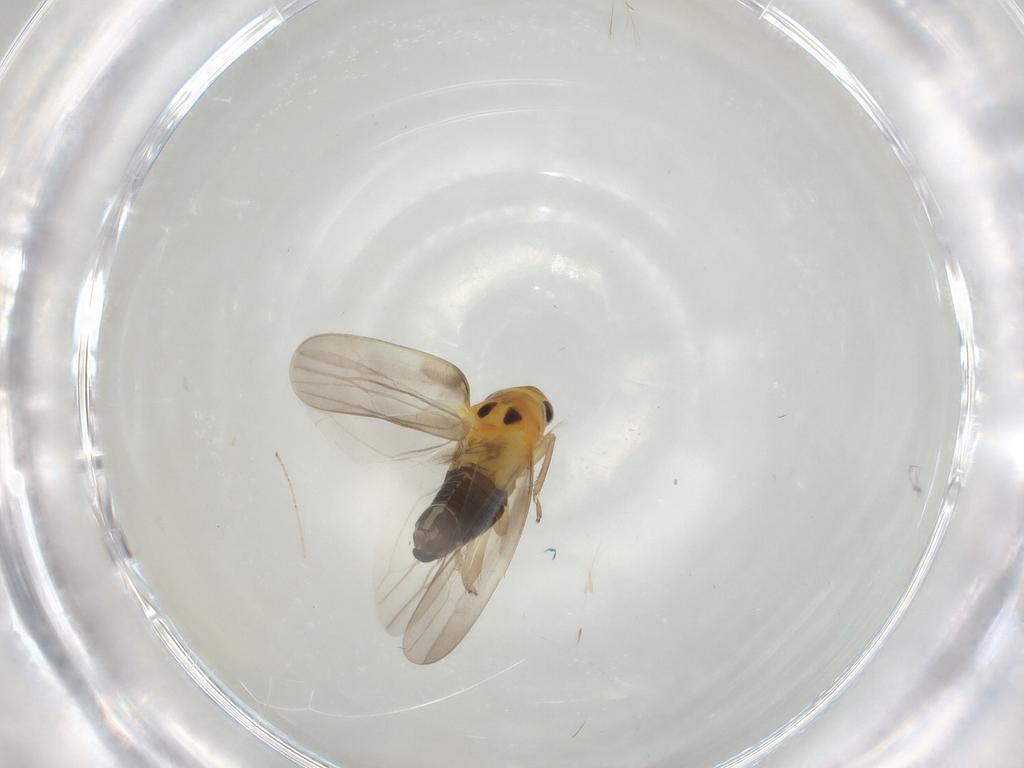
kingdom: Animalia
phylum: Arthropoda
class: Insecta
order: Hemiptera
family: Cicadellidae
